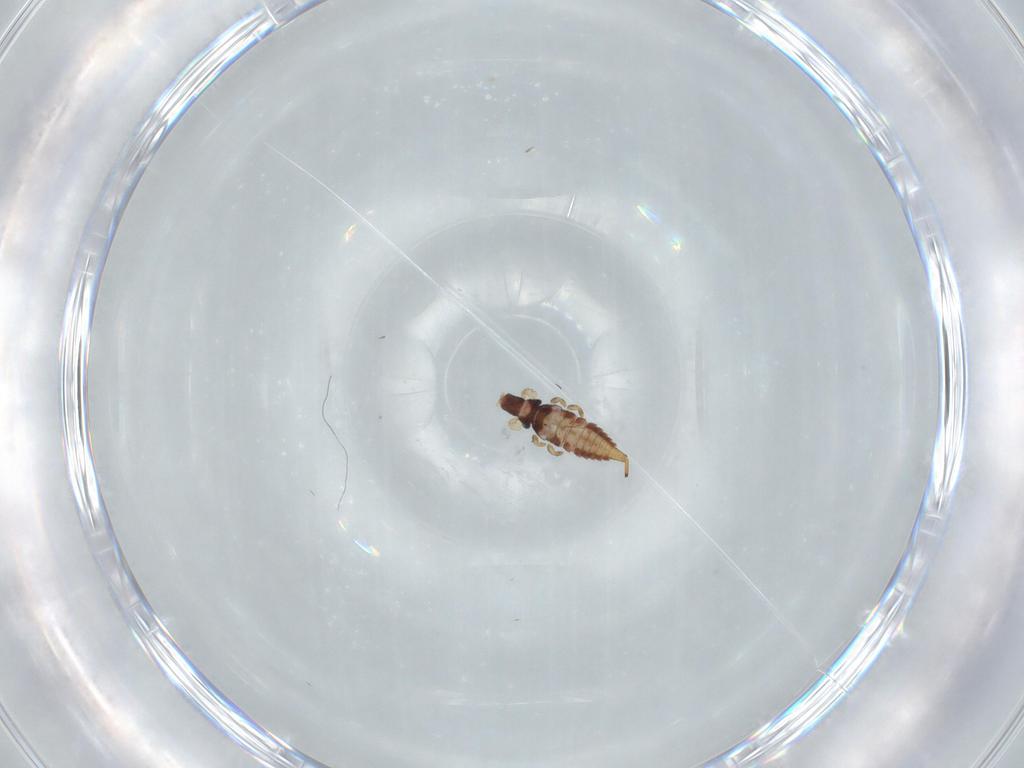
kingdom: Animalia
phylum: Arthropoda
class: Insecta
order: Thysanoptera
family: Phlaeothripidae
